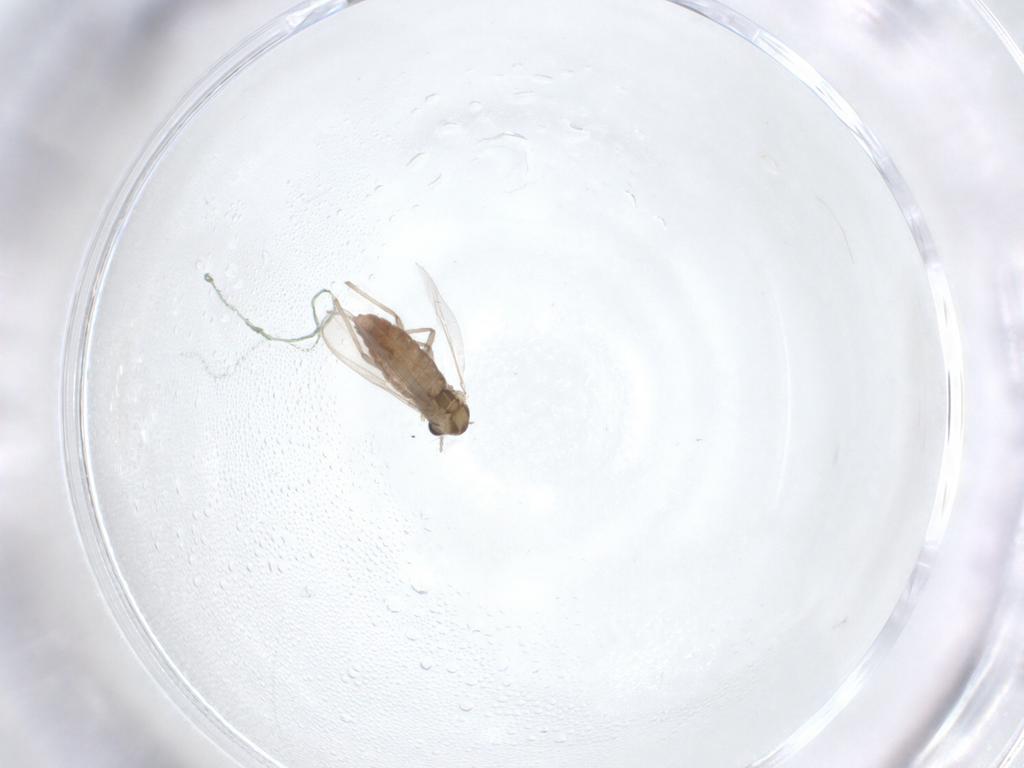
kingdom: Animalia
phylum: Arthropoda
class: Insecta
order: Diptera
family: Chironomidae
